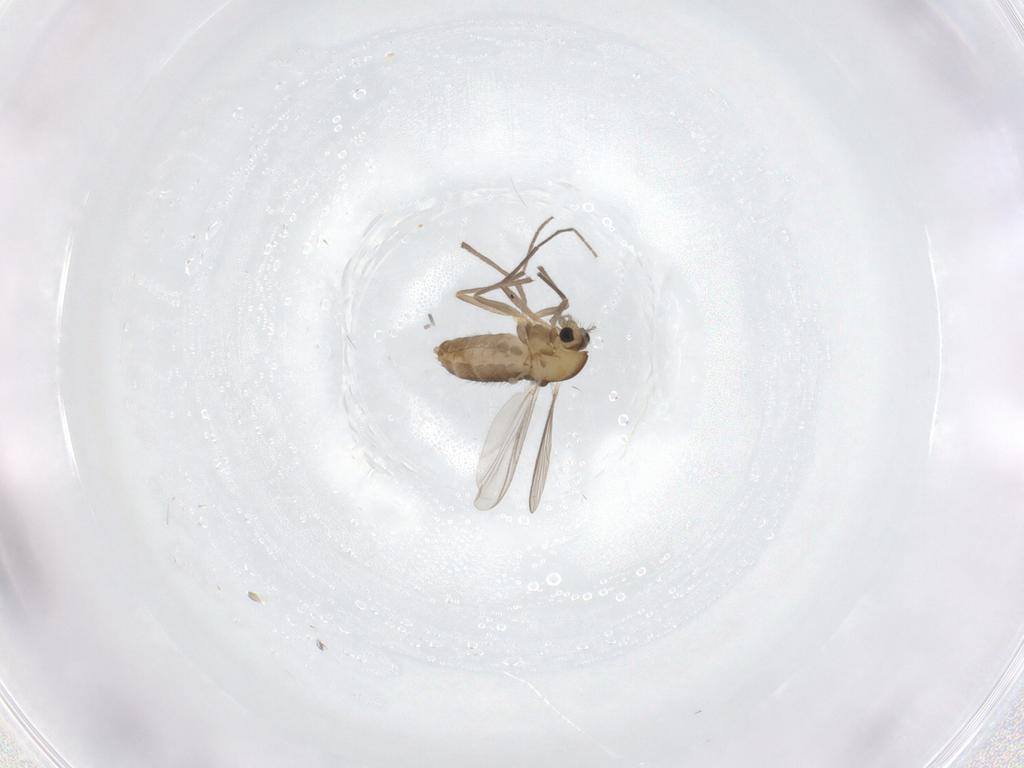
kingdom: Animalia
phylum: Arthropoda
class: Insecta
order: Diptera
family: Chironomidae
